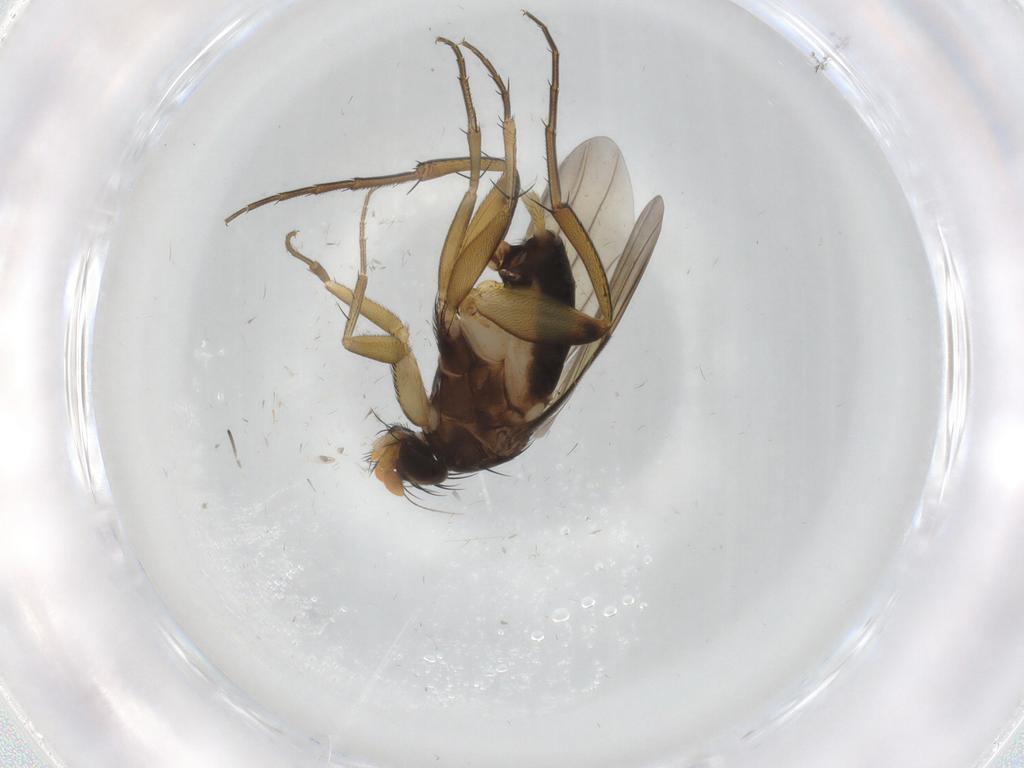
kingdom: Animalia
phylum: Arthropoda
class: Insecta
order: Diptera
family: Phoridae
